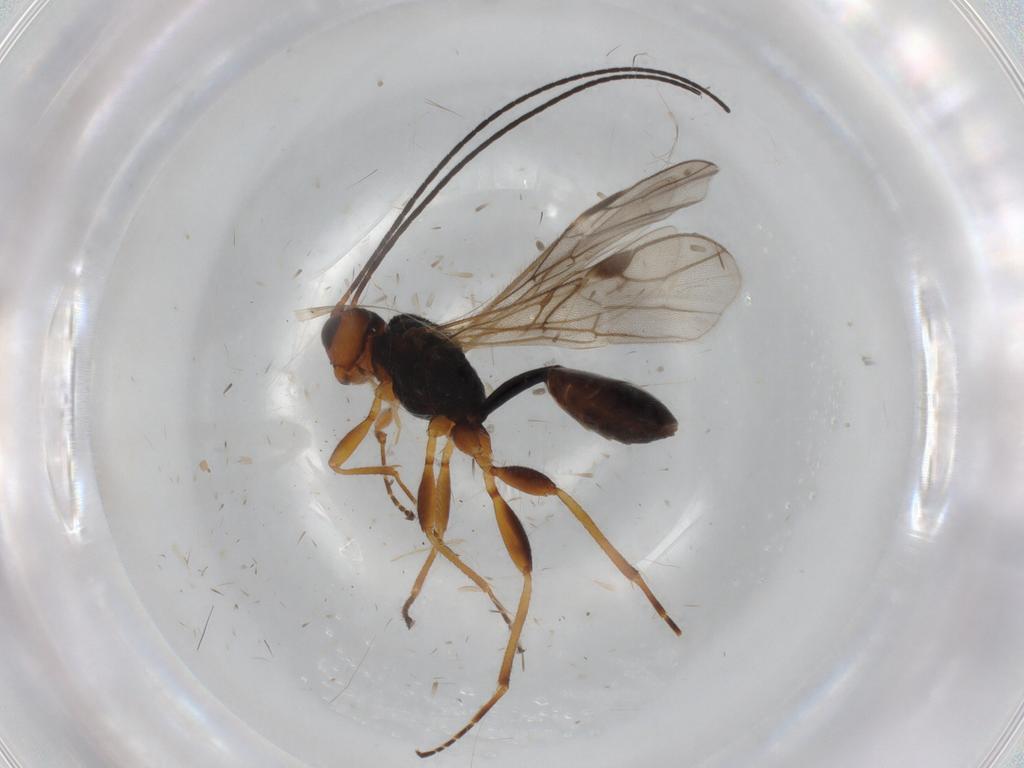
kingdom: Animalia
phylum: Arthropoda
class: Insecta
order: Hymenoptera
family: Braconidae
